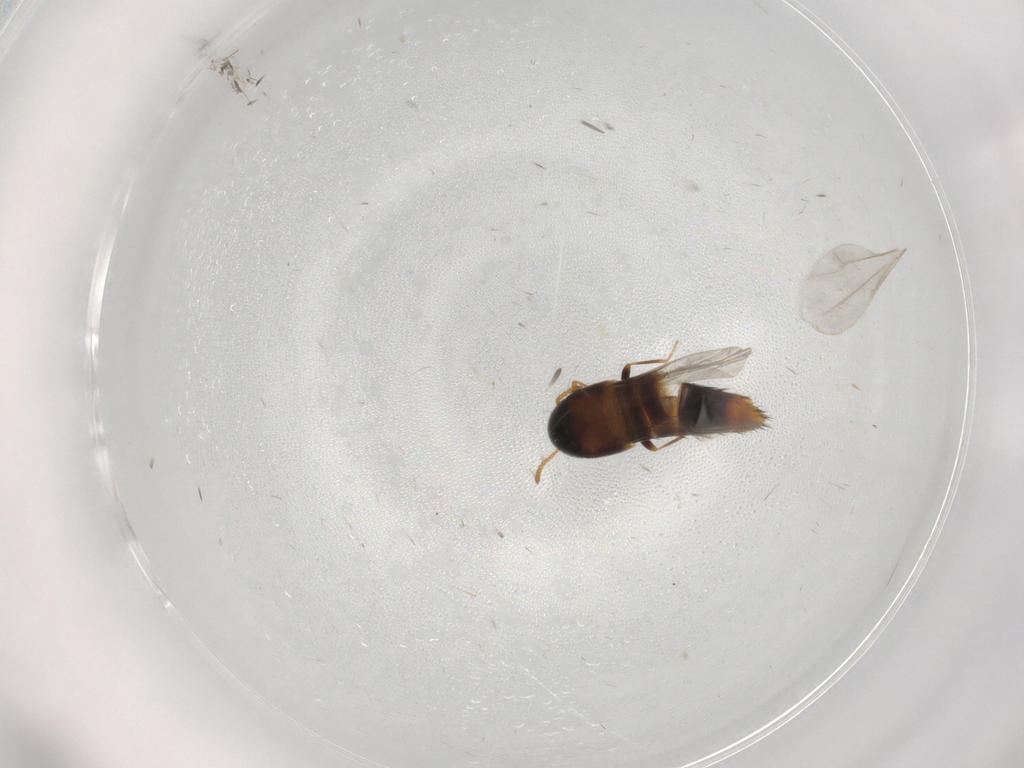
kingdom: Animalia
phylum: Arthropoda
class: Insecta
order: Coleoptera
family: Staphylinidae
